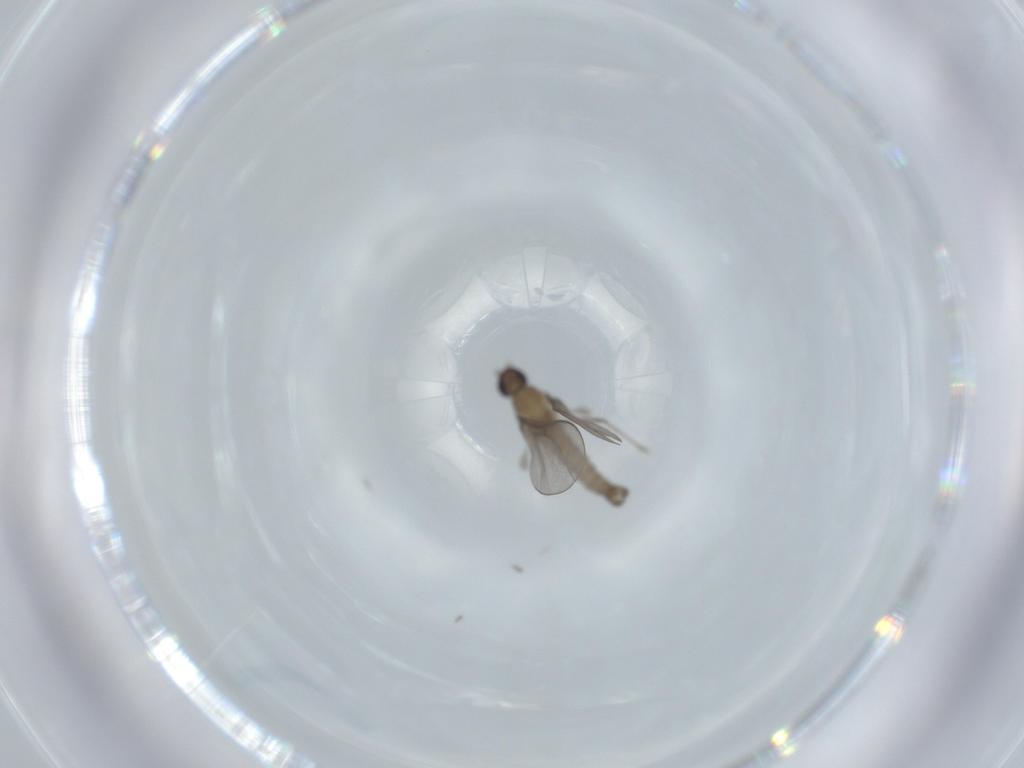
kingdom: Animalia
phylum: Arthropoda
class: Insecta
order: Diptera
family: Cecidomyiidae
